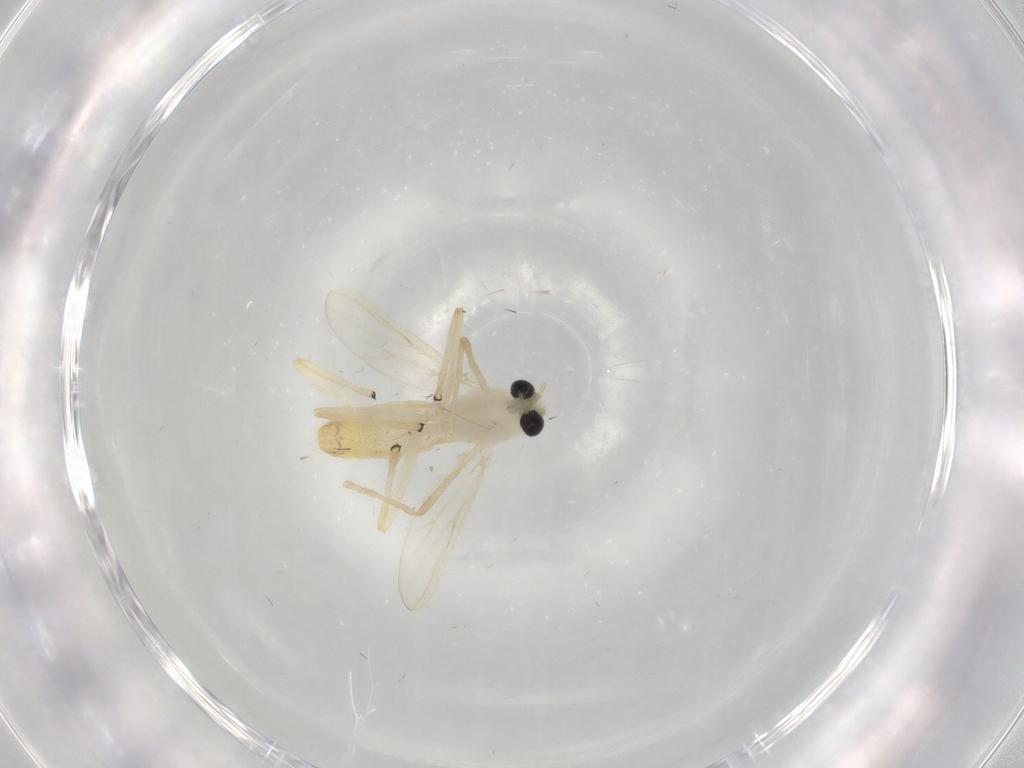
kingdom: Animalia
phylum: Arthropoda
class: Insecta
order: Diptera
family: Chironomidae
